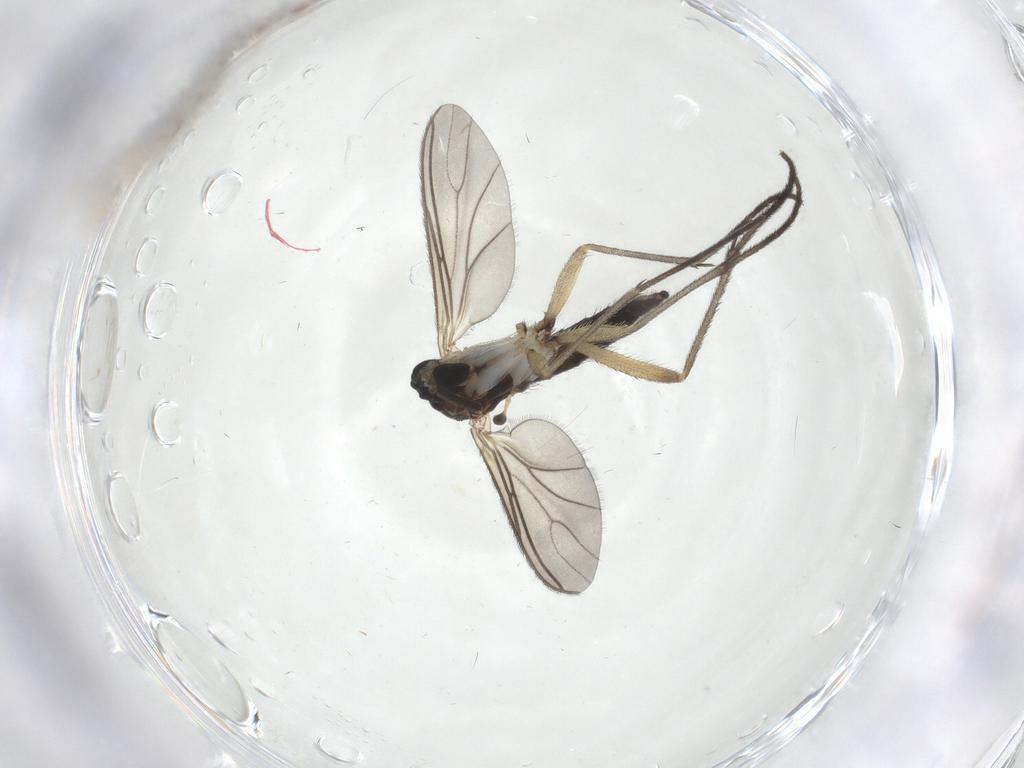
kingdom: Animalia
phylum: Arthropoda
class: Insecta
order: Diptera
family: Sciaridae
